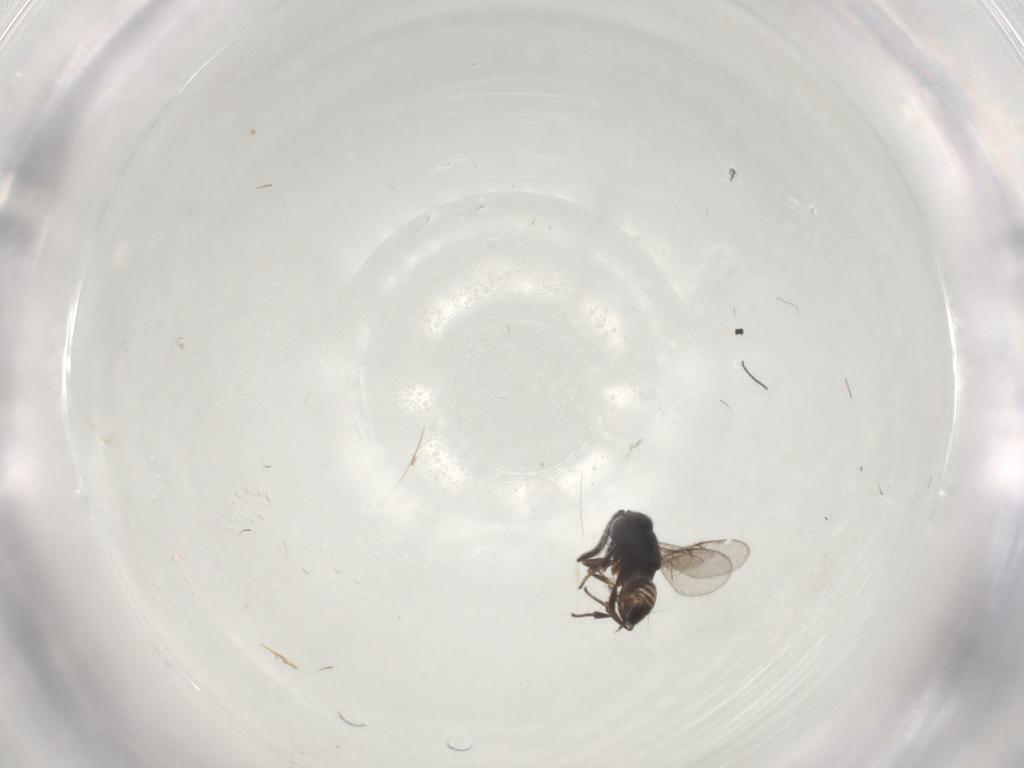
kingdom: Animalia
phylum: Arthropoda
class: Insecta
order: Hymenoptera
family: Encyrtidae
